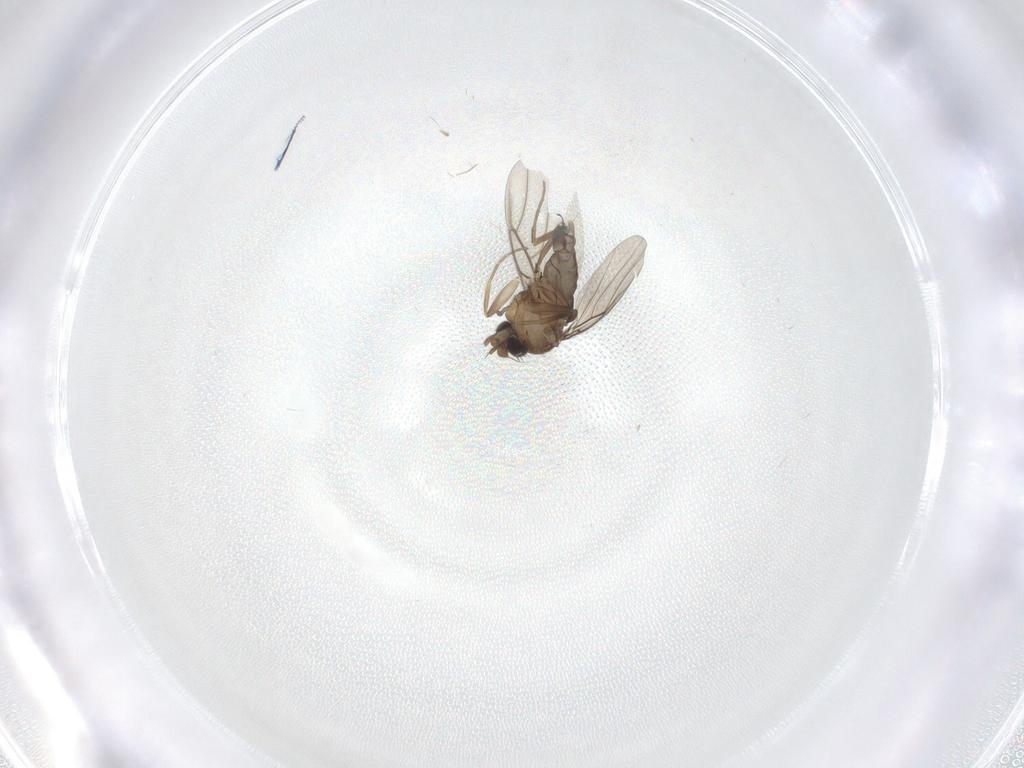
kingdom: Animalia
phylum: Arthropoda
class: Insecta
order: Diptera
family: Phoridae
